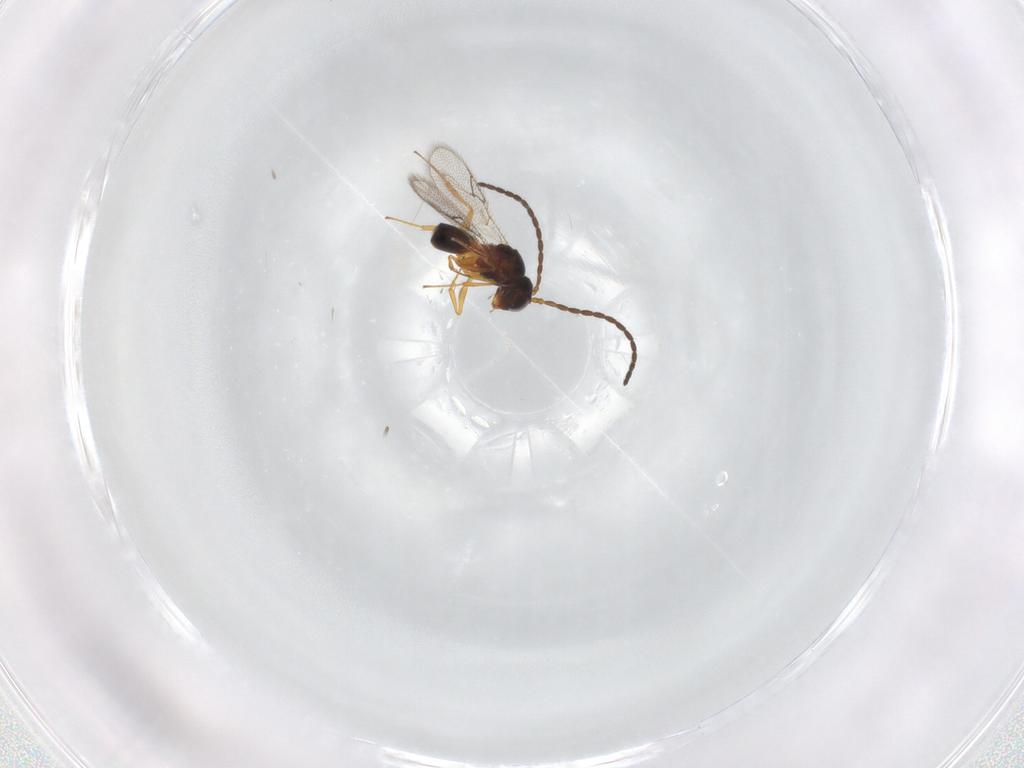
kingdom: Animalia
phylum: Arthropoda
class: Insecta
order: Hymenoptera
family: Figitidae
